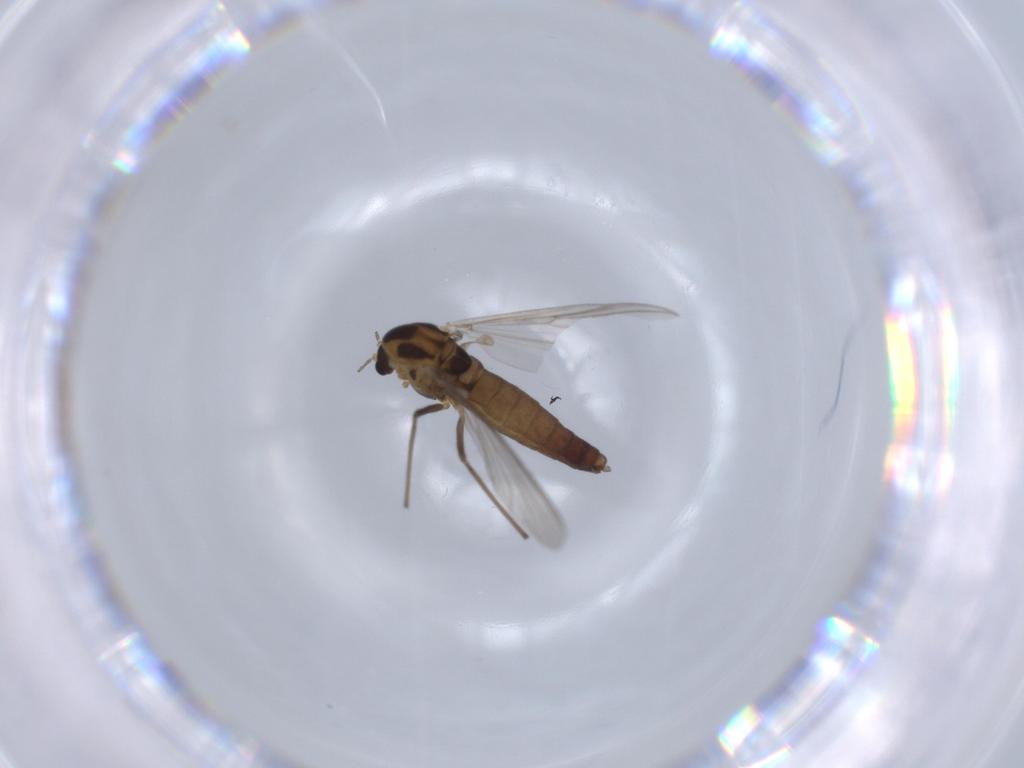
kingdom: Animalia
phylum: Arthropoda
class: Insecta
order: Diptera
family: Chironomidae
